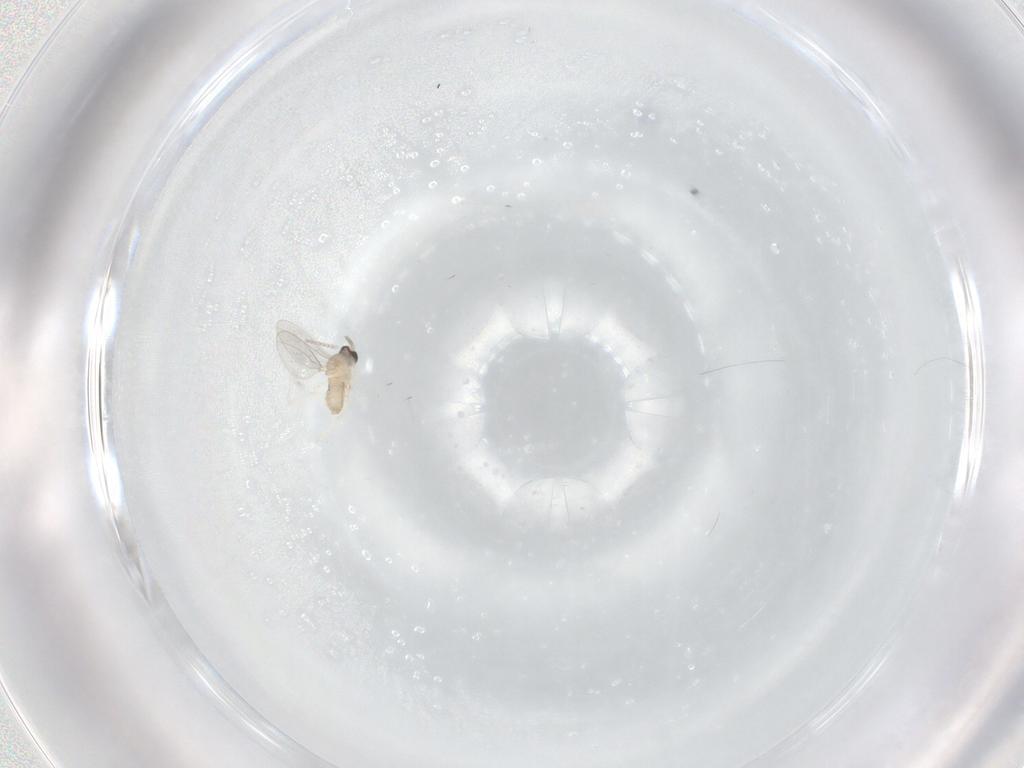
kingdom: Animalia
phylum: Arthropoda
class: Insecta
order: Diptera
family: Cecidomyiidae
